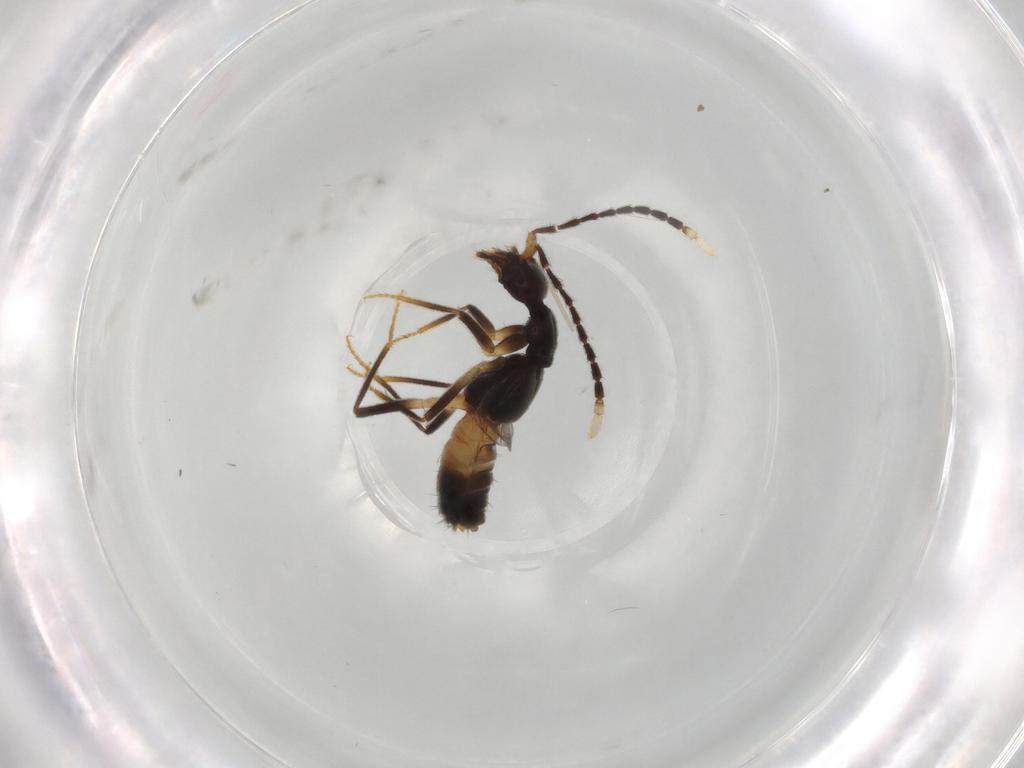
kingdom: Animalia
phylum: Arthropoda
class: Insecta
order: Coleoptera
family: Staphylinidae
